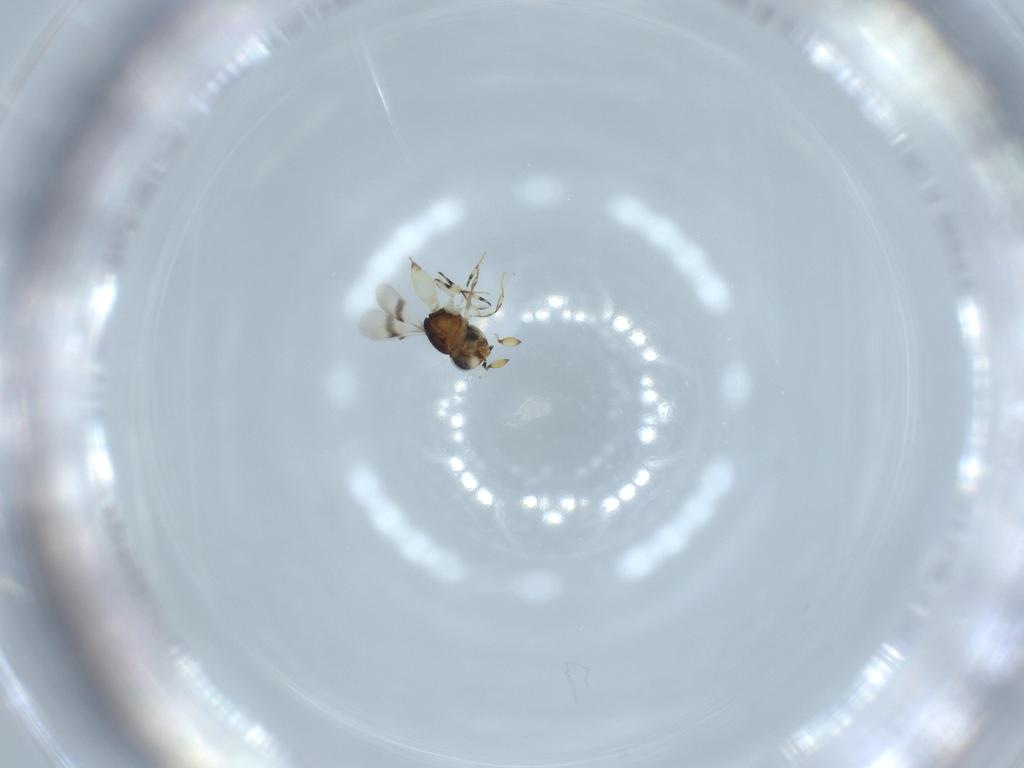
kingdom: Animalia
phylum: Arthropoda
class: Insecta
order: Hymenoptera
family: Scelionidae
